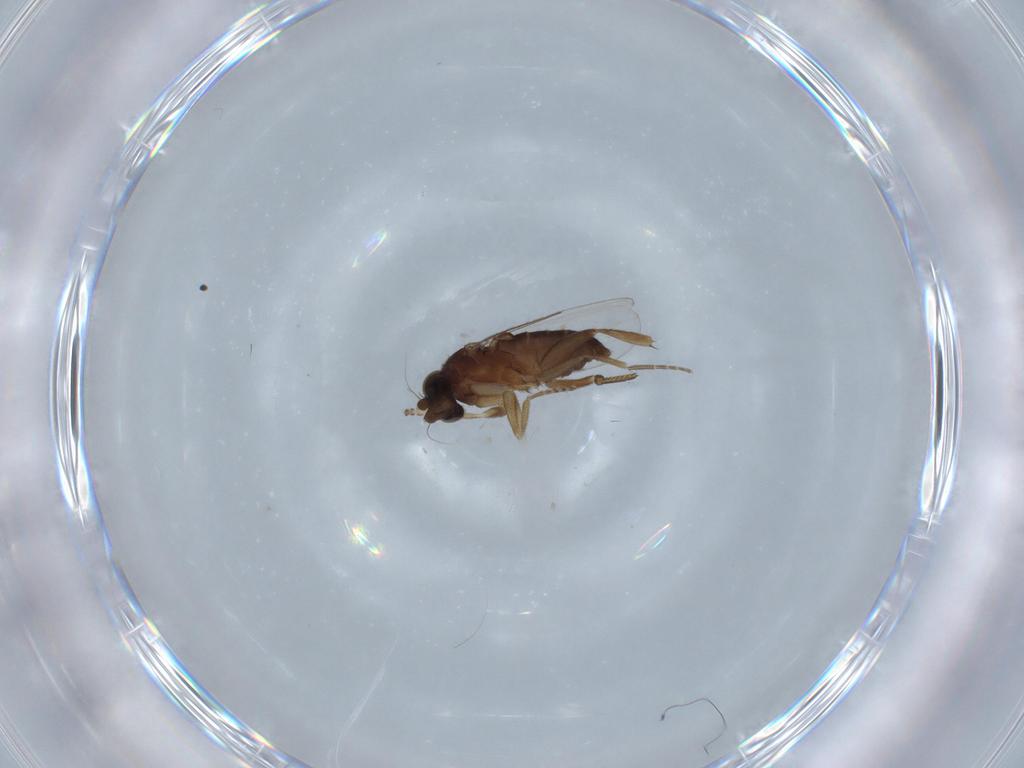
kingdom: Animalia
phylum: Arthropoda
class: Insecta
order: Diptera
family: Phoridae
